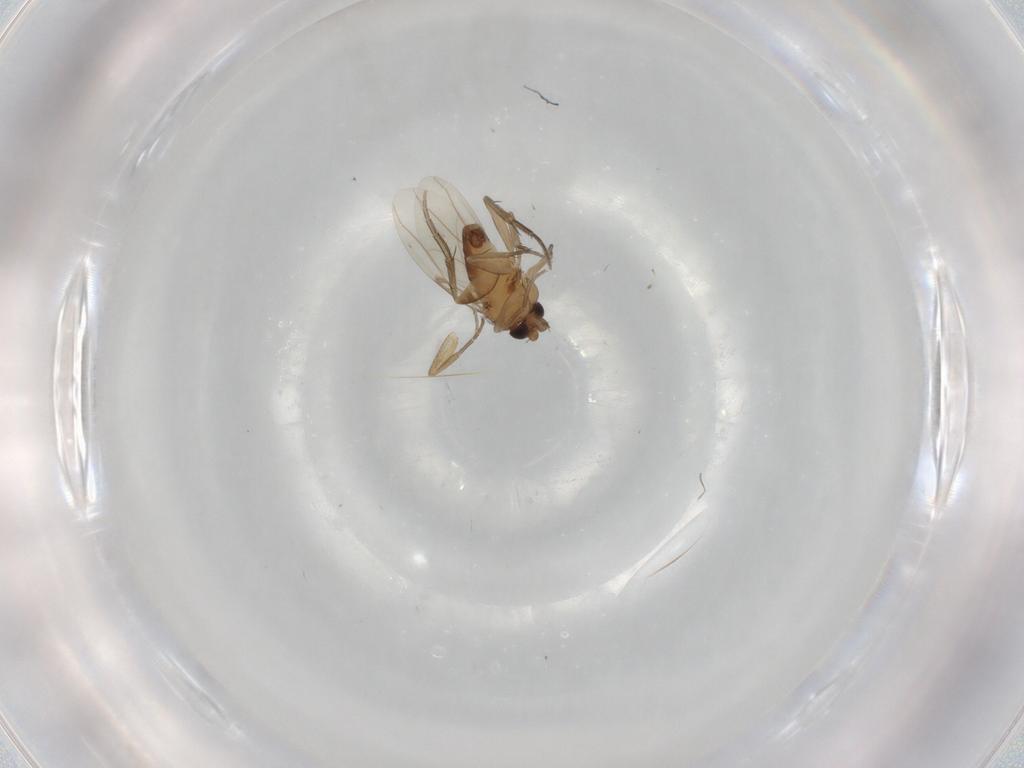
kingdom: Animalia
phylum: Arthropoda
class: Insecta
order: Diptera
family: Phoridae
